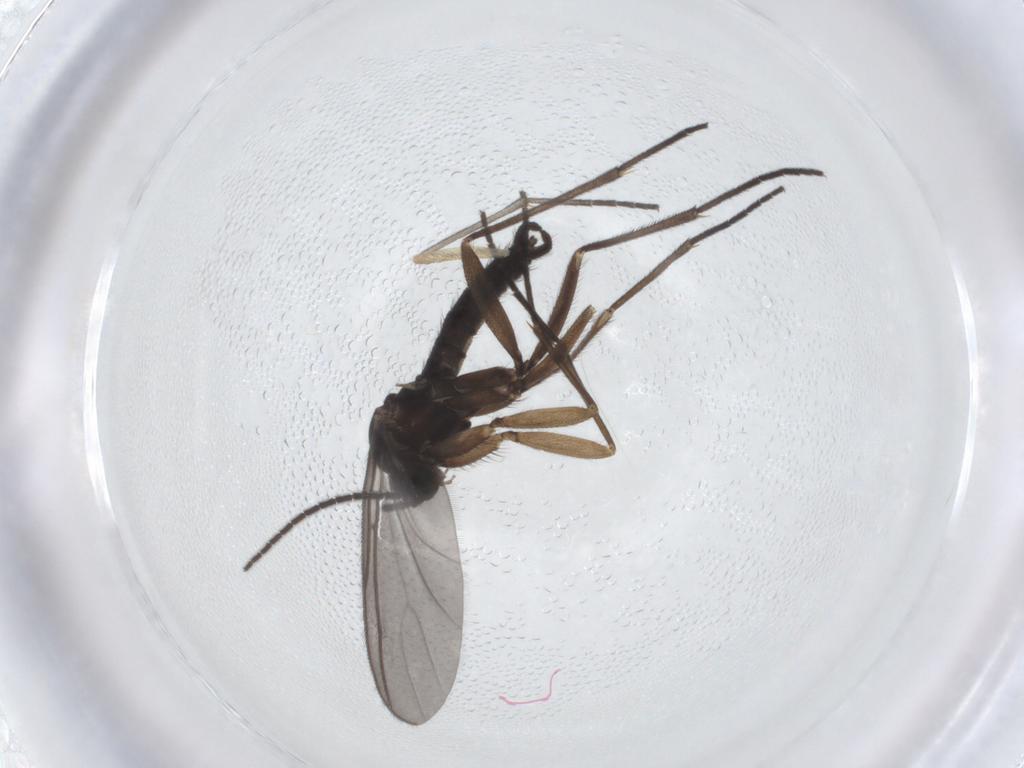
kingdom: Animalia
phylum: Arthropoda
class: Insecta
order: Diptera
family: Sciaridae
